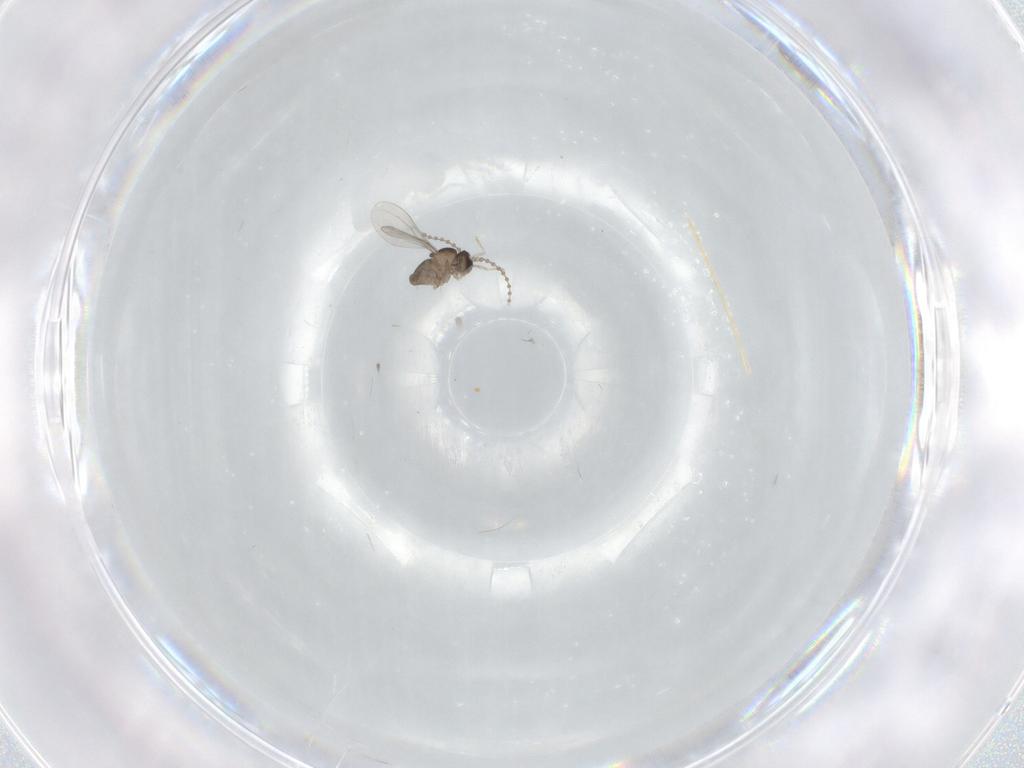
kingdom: Animalia
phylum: Arthropoda
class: Insecta
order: Diptera
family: Cecidomyiidae
